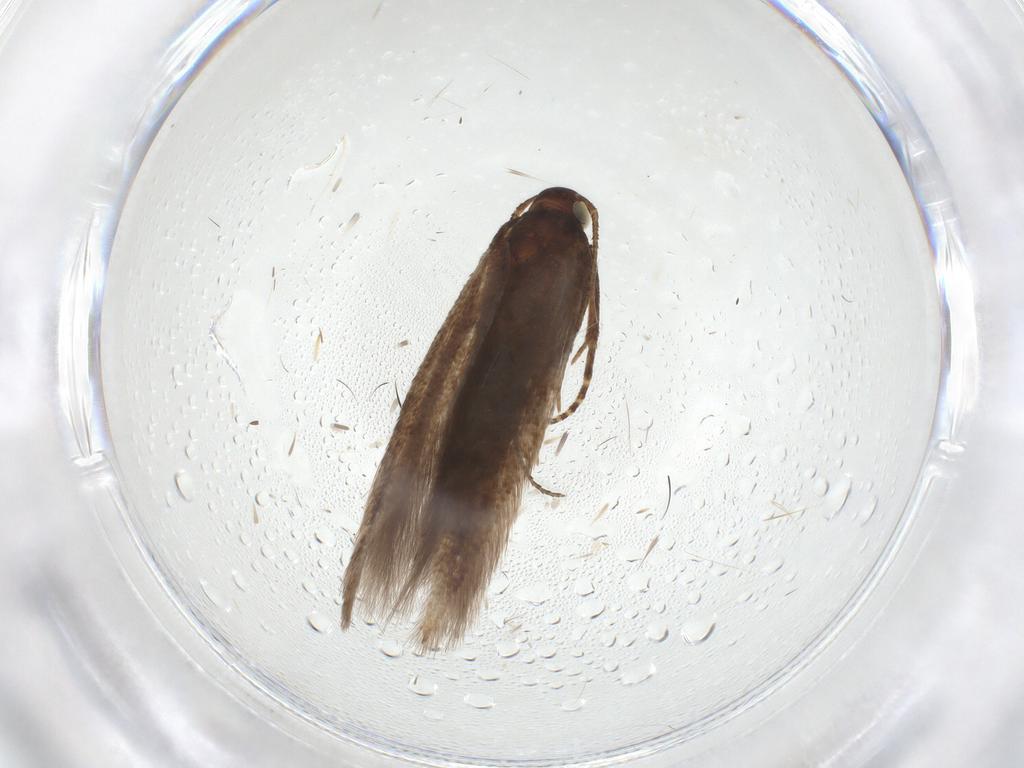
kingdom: Animalia
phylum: Arthropoda
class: Insecta
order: Lepidoptera
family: Gelechiidae
